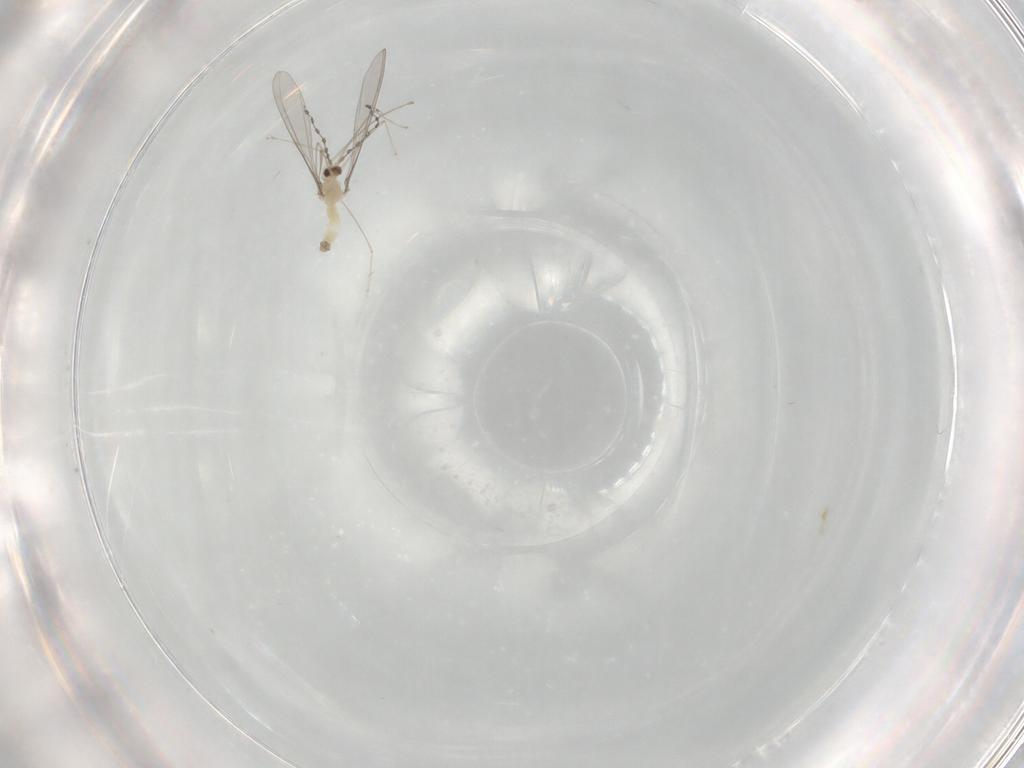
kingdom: Animalia
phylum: Arthropoda
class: Insecta
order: Diptera
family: Cecidomyiidae
